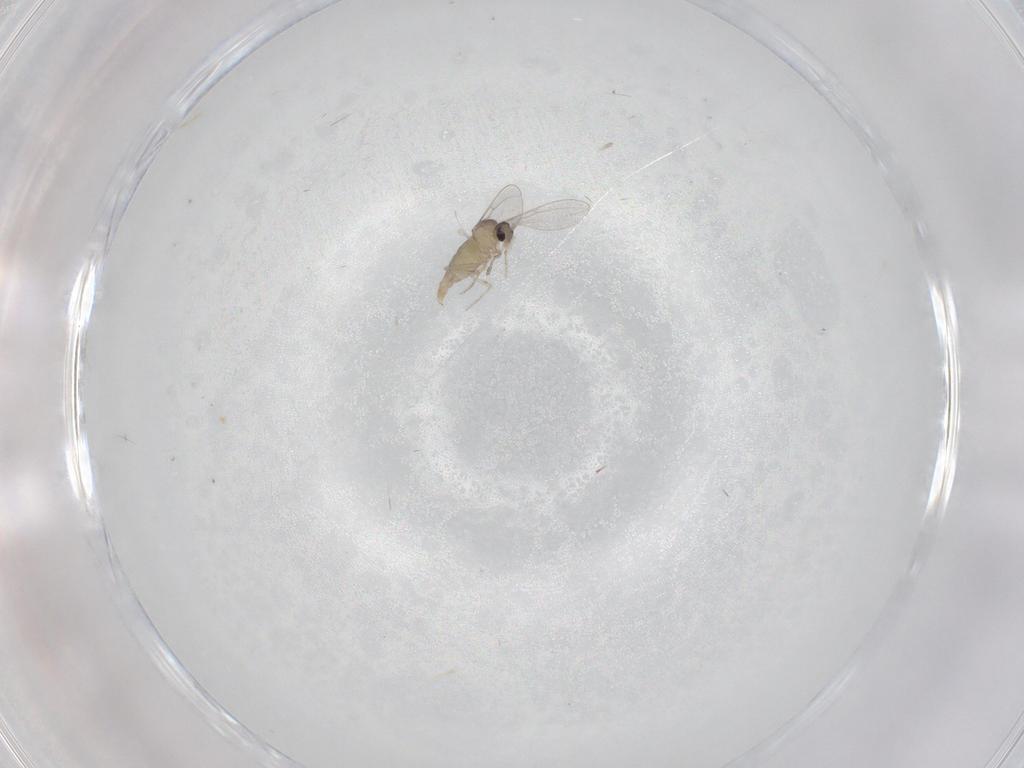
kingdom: Animalia
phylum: Arthropoda
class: Insecta
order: Diptera
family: Cecidomyiidae
